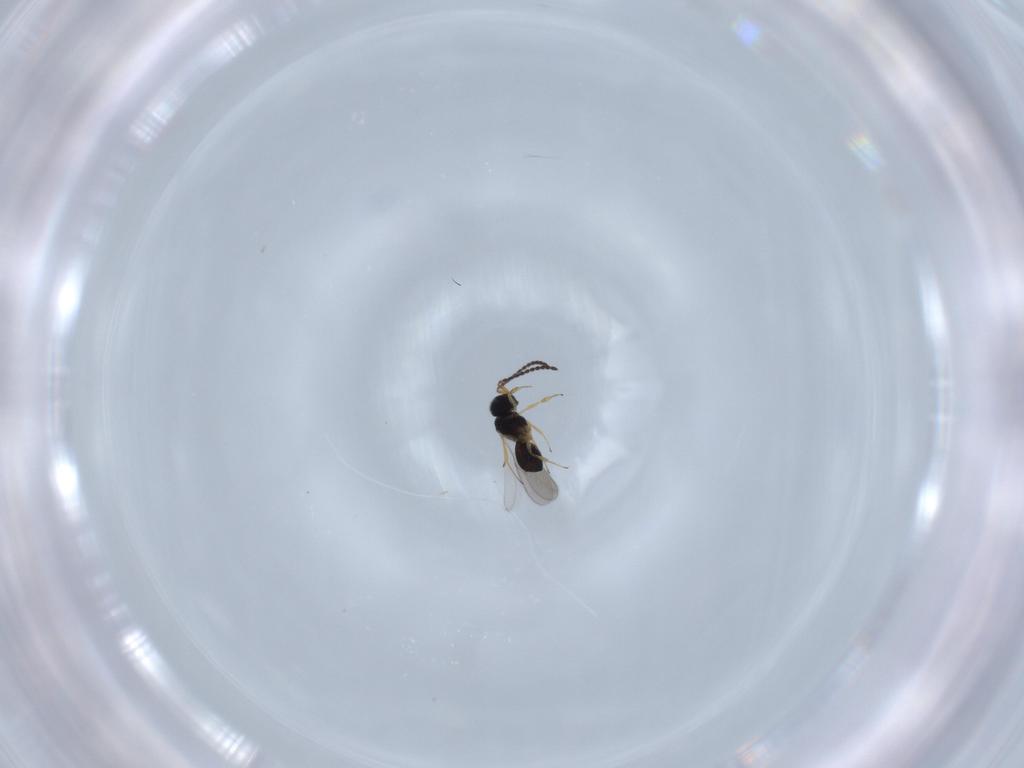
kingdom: Animalia
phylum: Arthropoda
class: Insecta
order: Hymenoptera
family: Scelionidae
